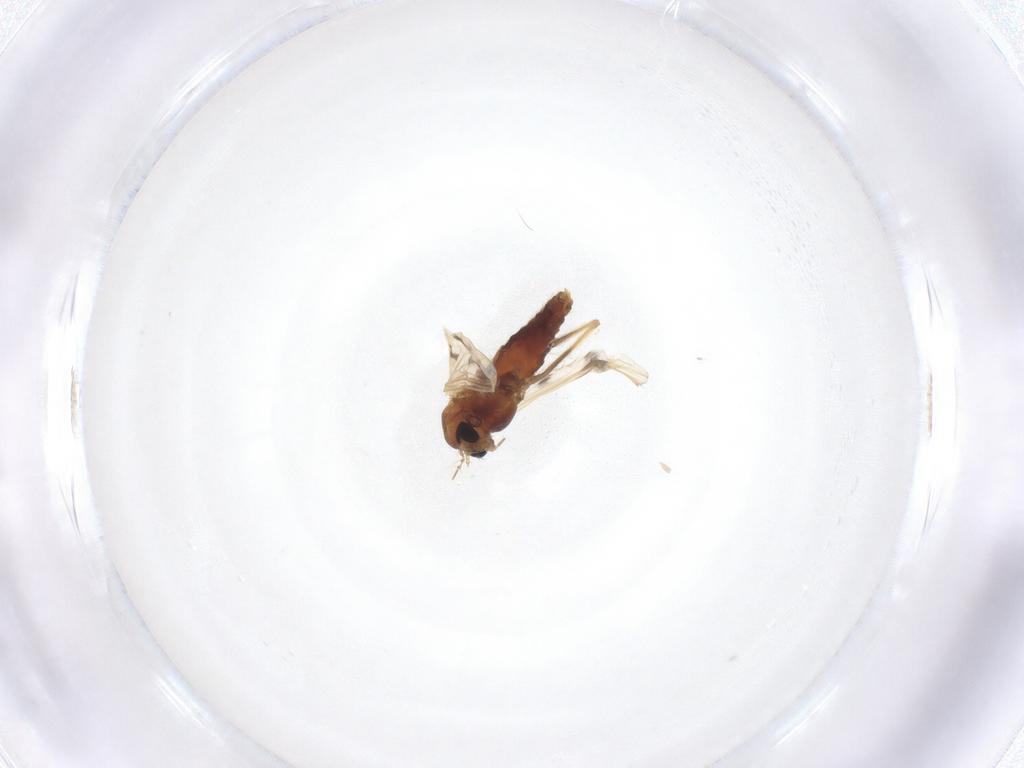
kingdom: Animalia
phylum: Arthropoda
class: Insecta
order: Diptera
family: Chironomidae
